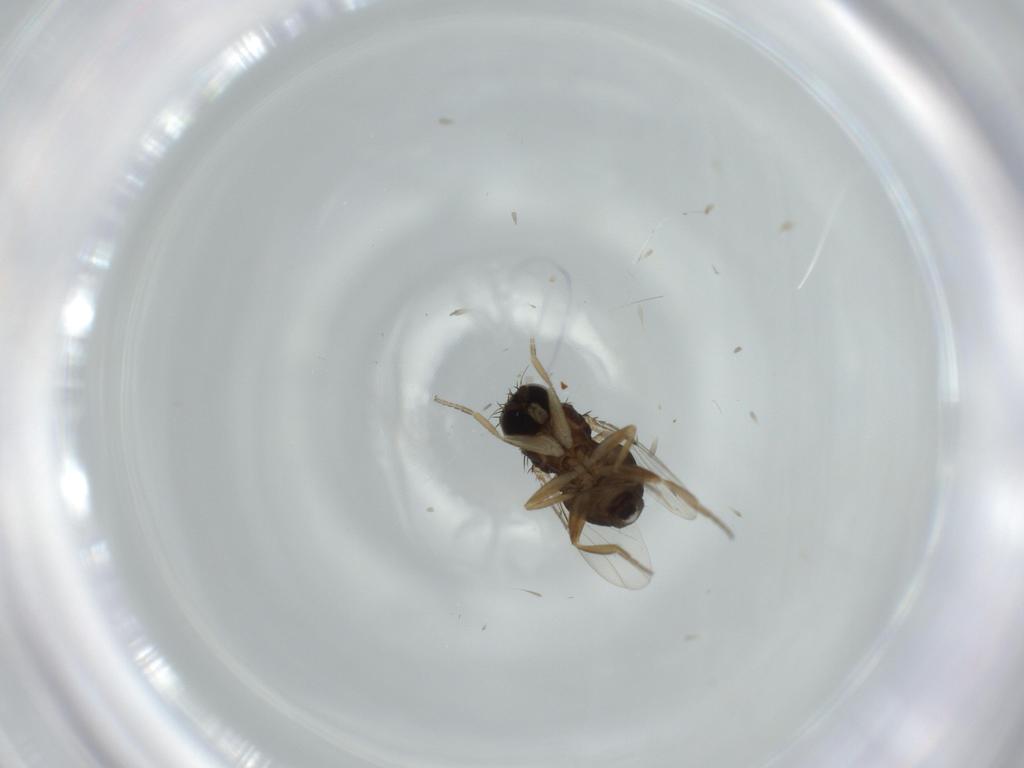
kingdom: Animalia
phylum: Arthropoda
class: Insecta
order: Diptera
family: Phoridae
